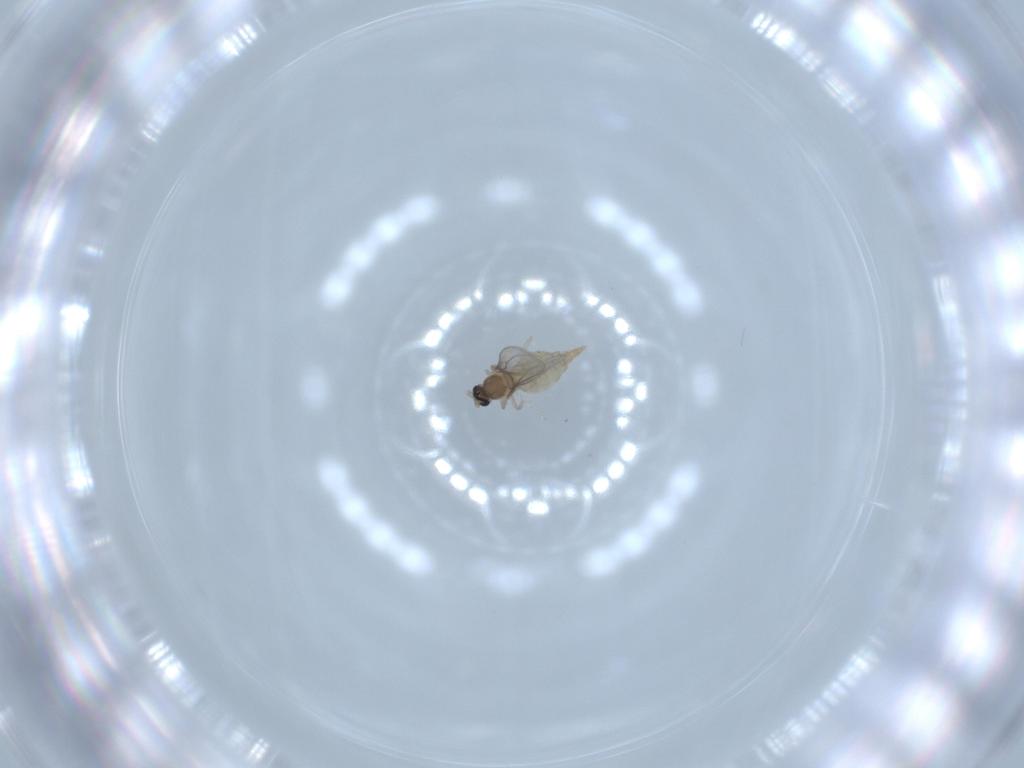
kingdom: Animalia
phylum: Arthropoda
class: Insecta
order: Diptera
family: Cecidomyiidae
